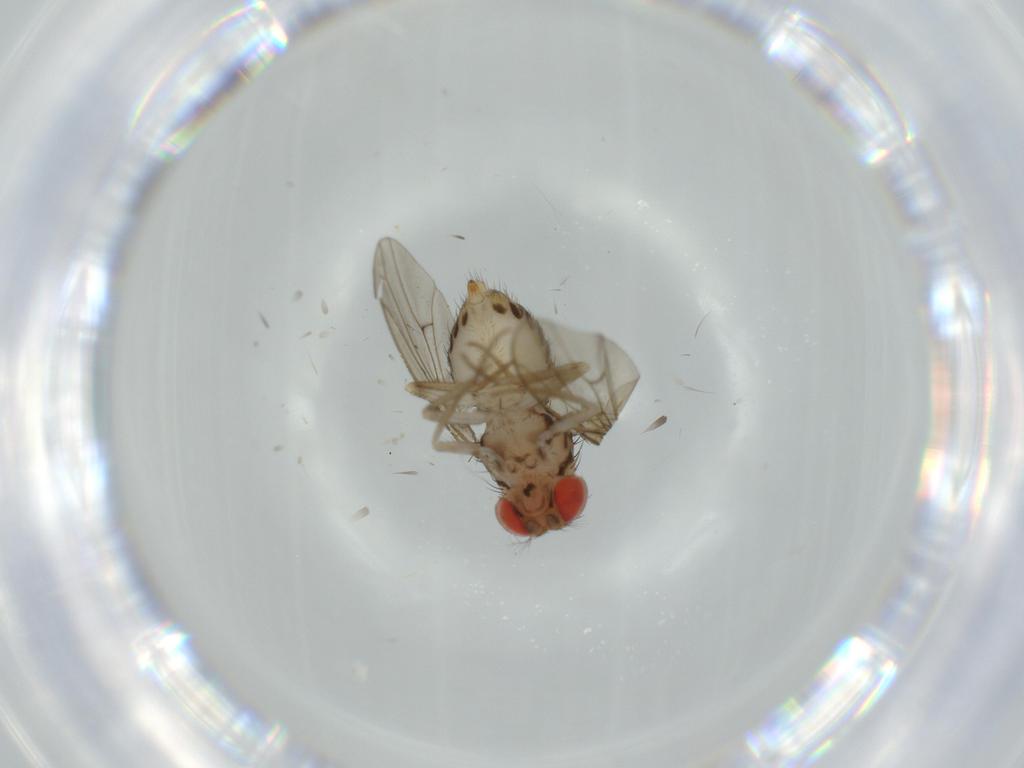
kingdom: Animalia
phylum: Arthropoda
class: Insecta
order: Diptera
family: Drosophilidae
